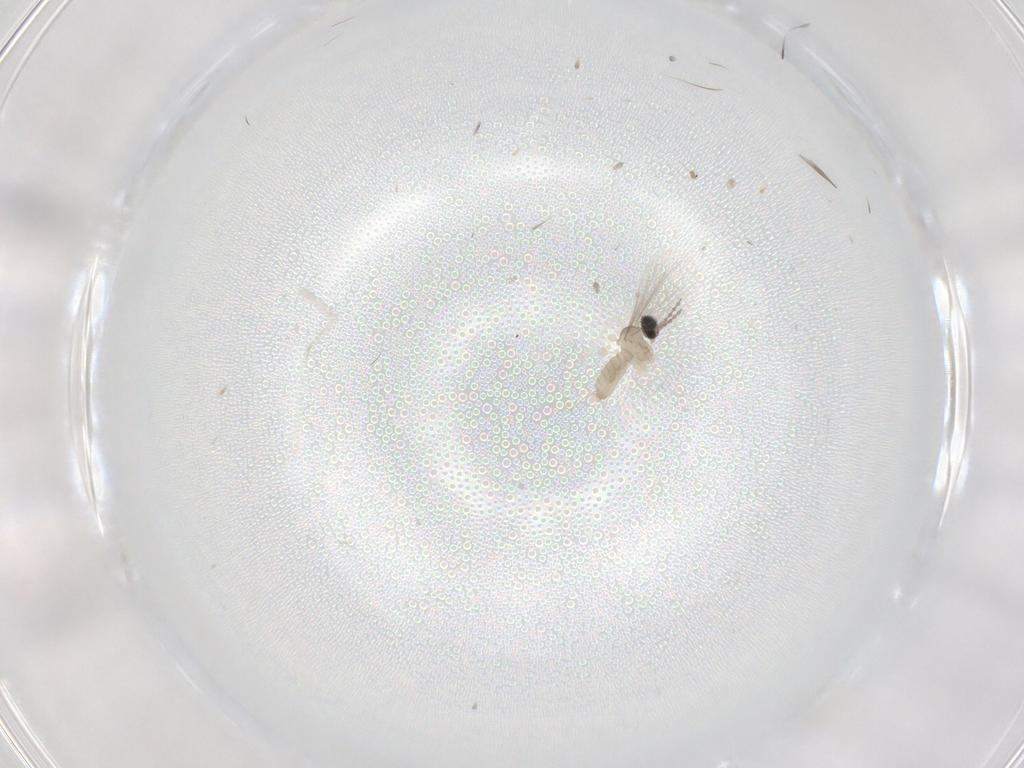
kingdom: Animalia
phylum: Arthropoda
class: Insecta
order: Diptera
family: Cecidomyiidae
